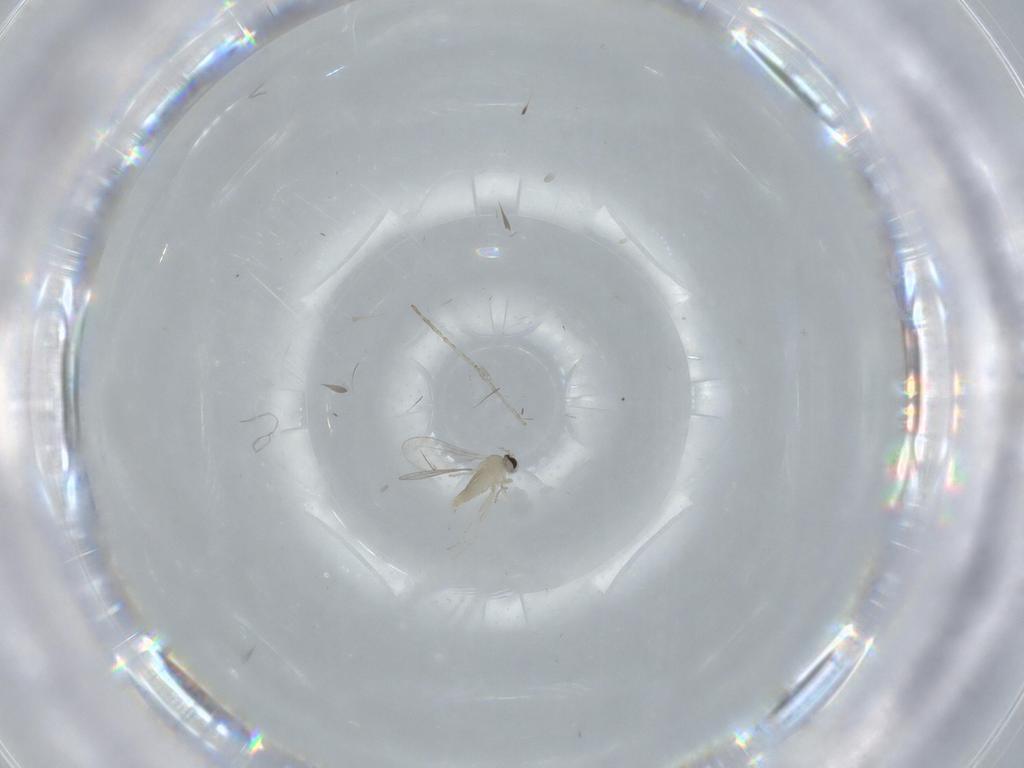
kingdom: Animalia
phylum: Arthropoda
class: Insecta
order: Diptera
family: Cecidomyiidae
